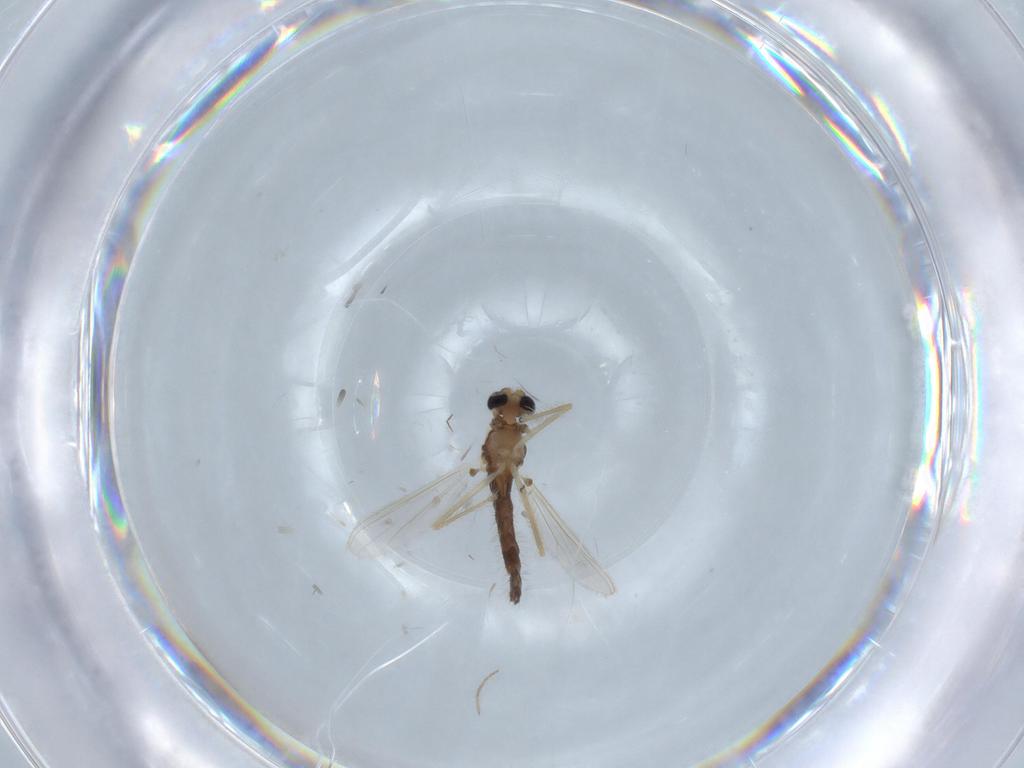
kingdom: Animalia
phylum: Arthropoda
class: Insecta
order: Diptera
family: Chironomidae
